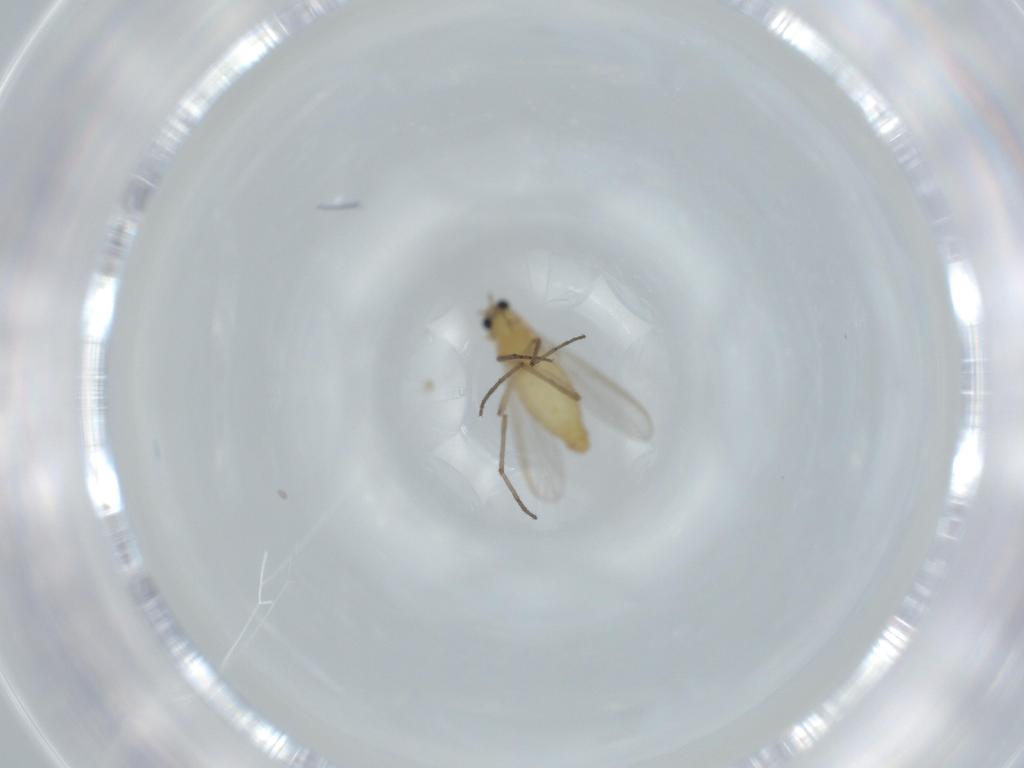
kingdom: Animalia
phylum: Arthropoda
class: Insecta
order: Diptera
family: Chironomidae
